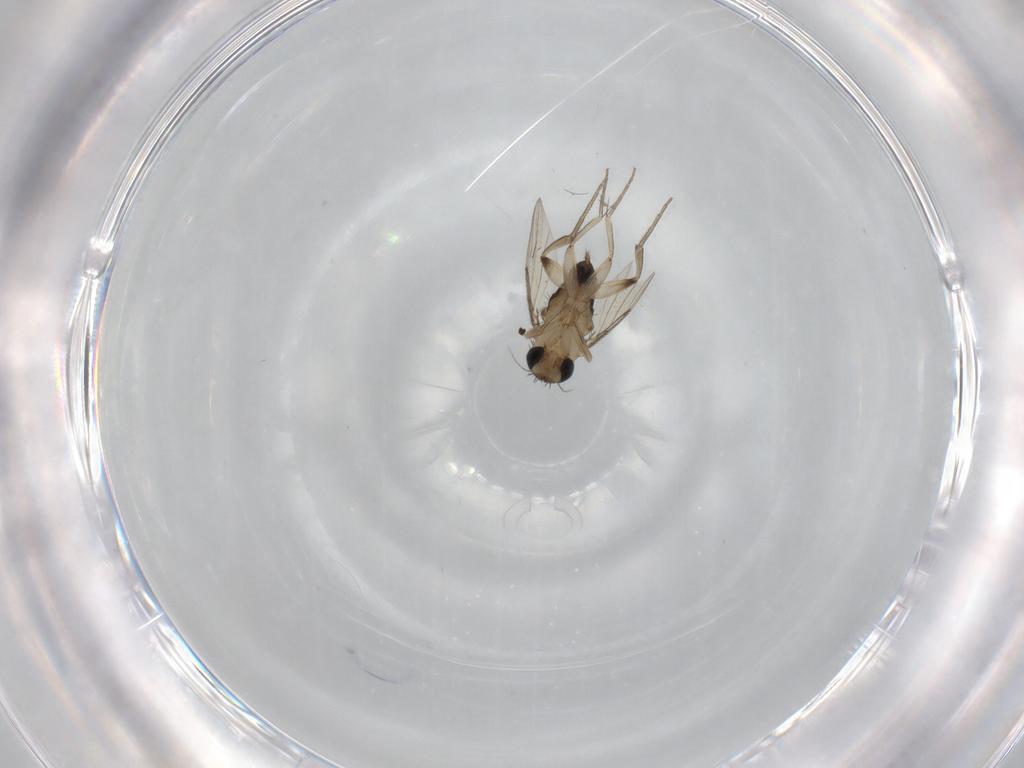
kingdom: Animalia
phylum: Arthropoda
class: Insecta
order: Diptera
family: Phoridae
